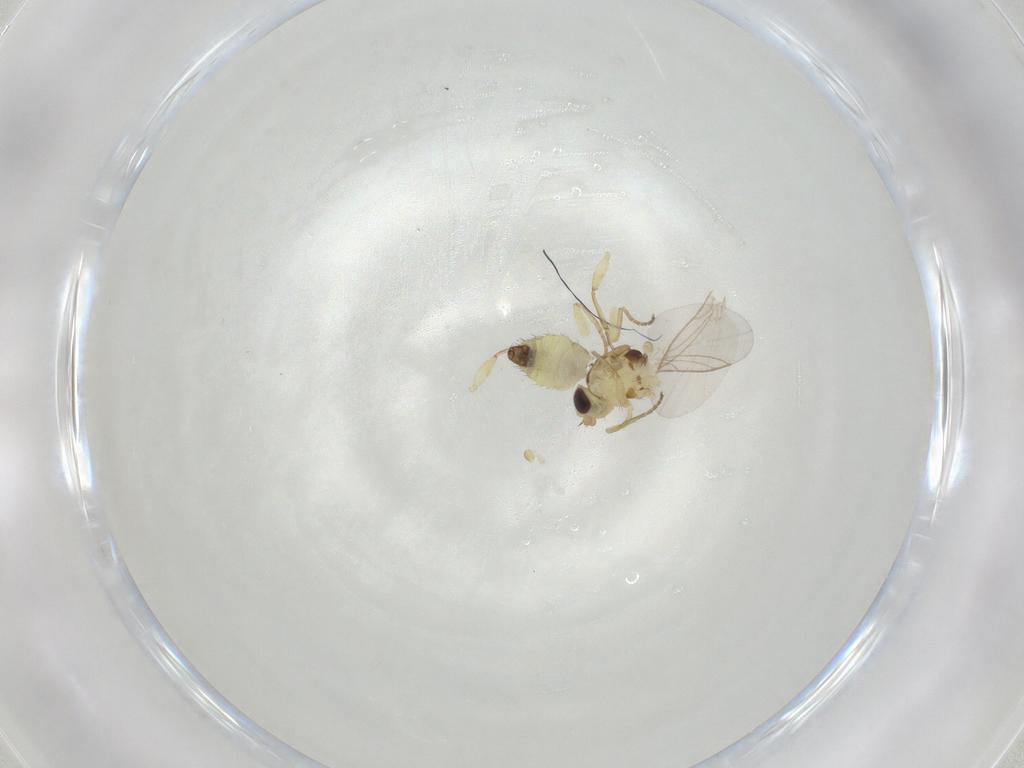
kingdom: Animalia
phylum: Arthropoda
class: Insecta
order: Diptera
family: Agromyzidae
